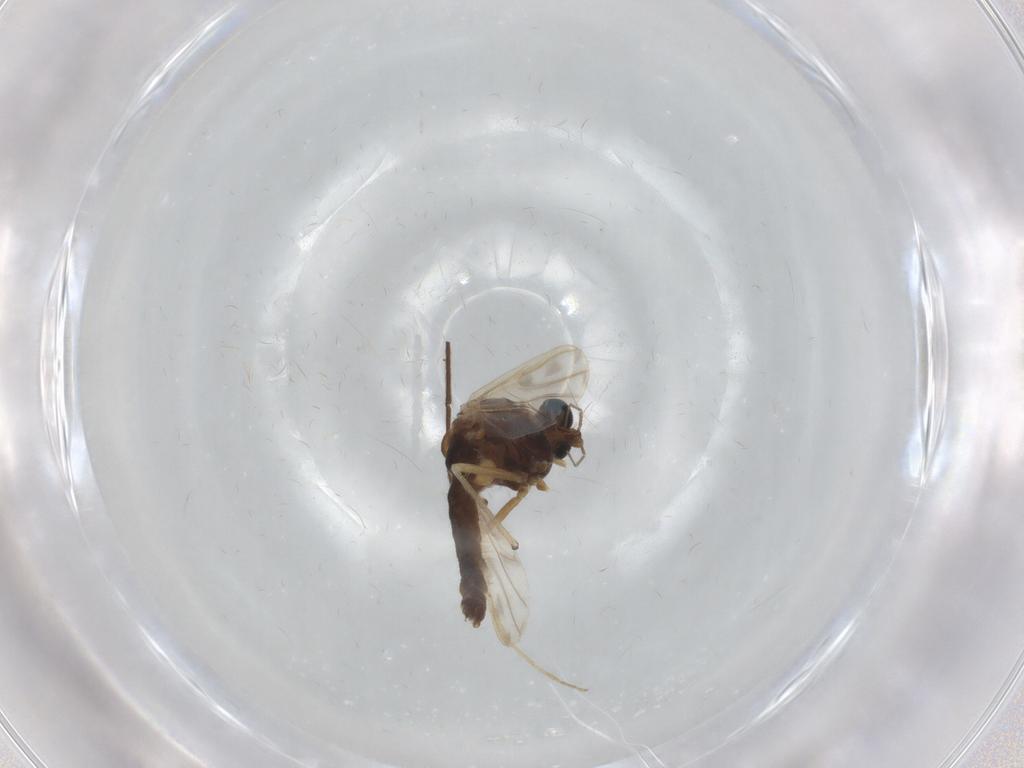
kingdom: Animalia
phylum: Arthropoda
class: Insecta
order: Diptera
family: Chironomidae
